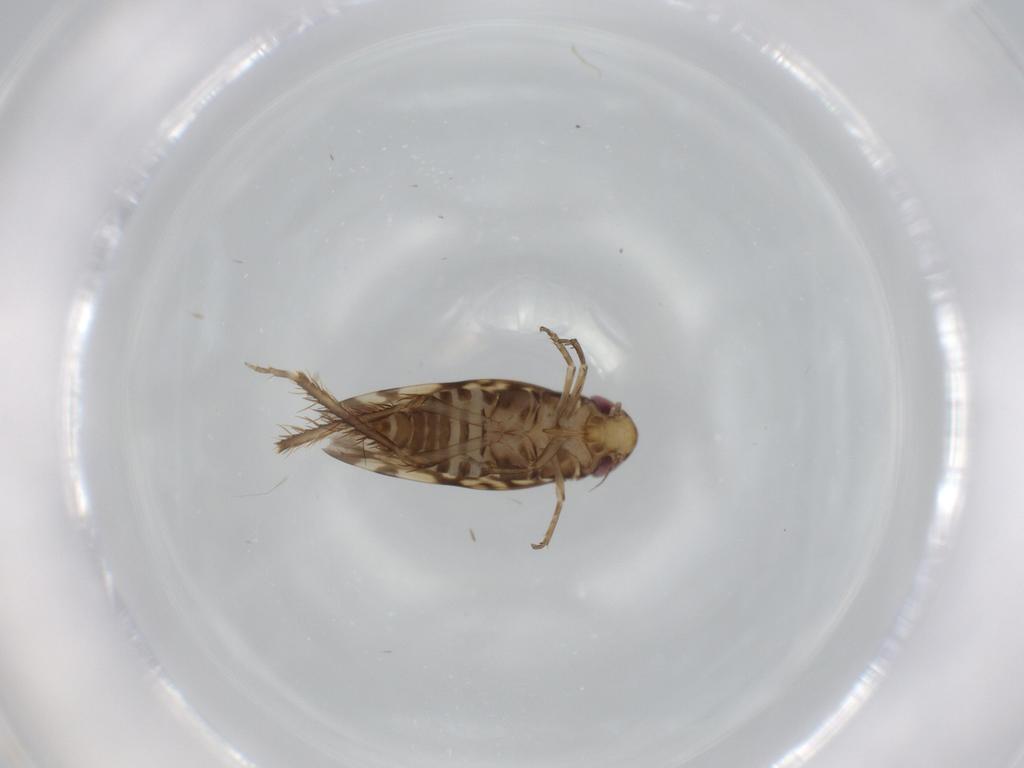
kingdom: Animalia
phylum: Arthropoda
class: Insecta
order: Hemiptera
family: Cicadellidae
